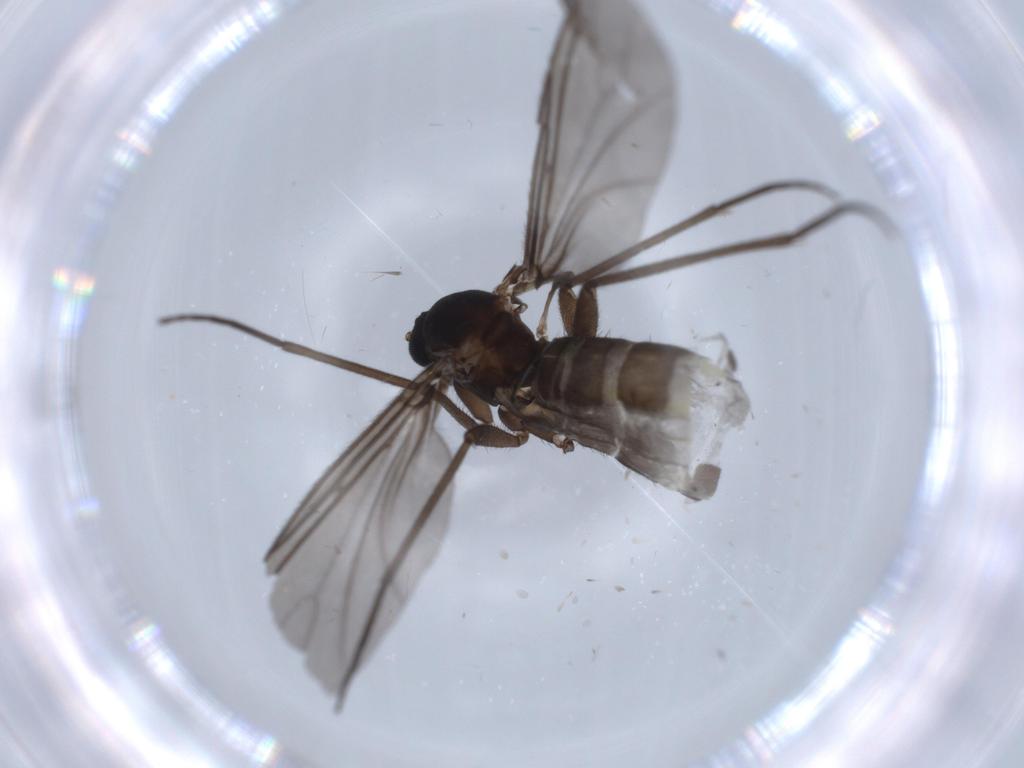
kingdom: Animalia
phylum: Arthropoda
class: Insecta
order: Diptera
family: Sciaridae
